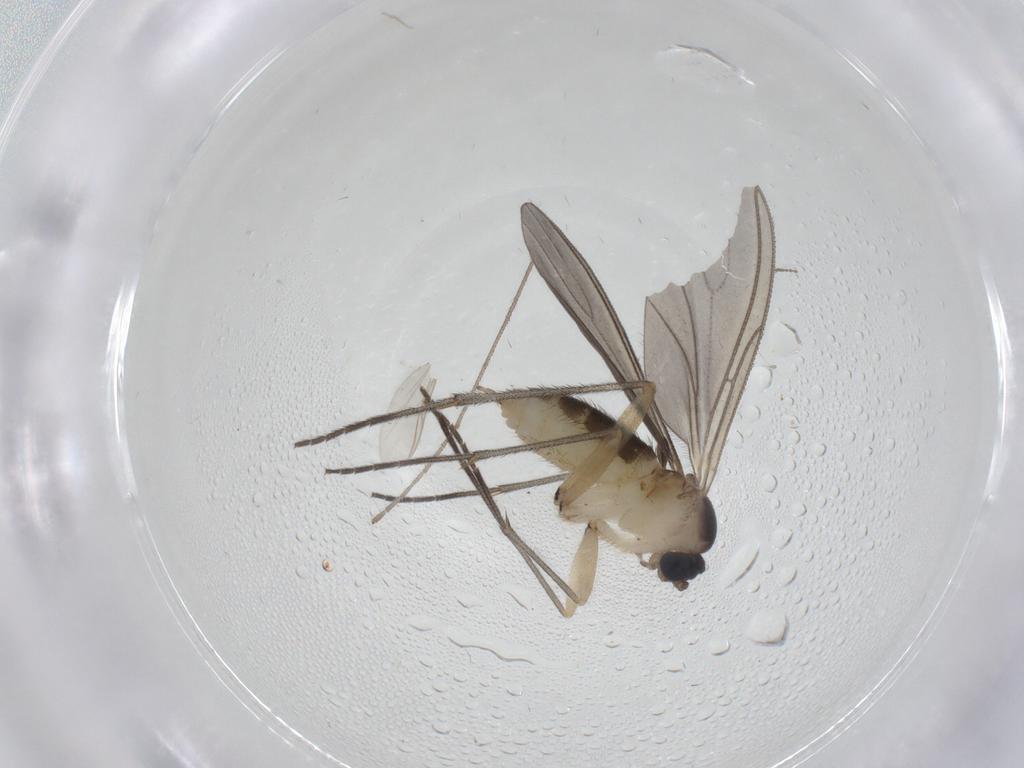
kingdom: Animalia
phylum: Arthropoda
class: Insecta
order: Diptera
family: Sciaridae
